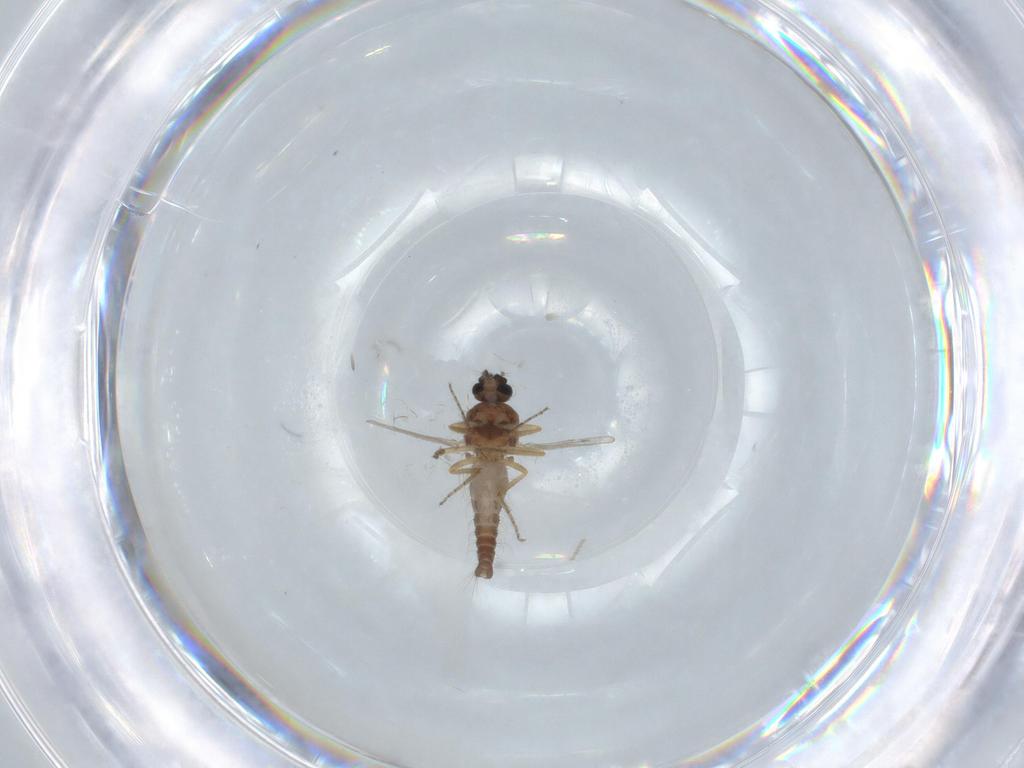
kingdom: Animalia
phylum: Arthropoda
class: Insecta
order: Diptera
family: Ceratopogonidae
